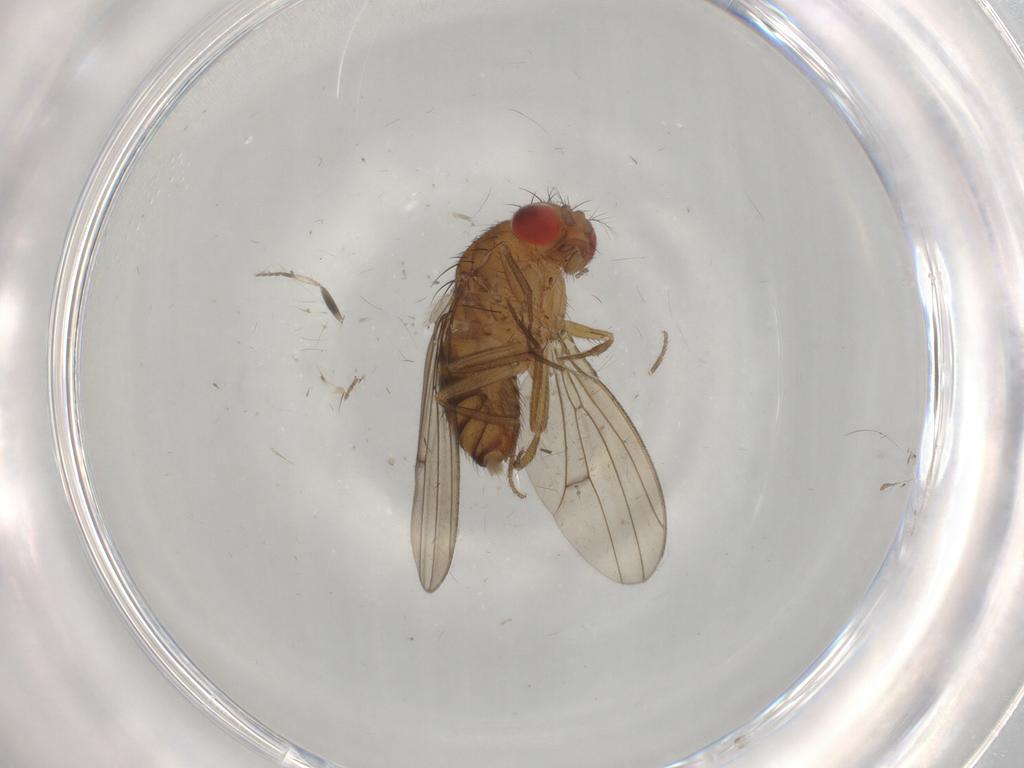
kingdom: Animalia
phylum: Arthropoda
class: Insecta
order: Diptera
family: Drosophilidae
